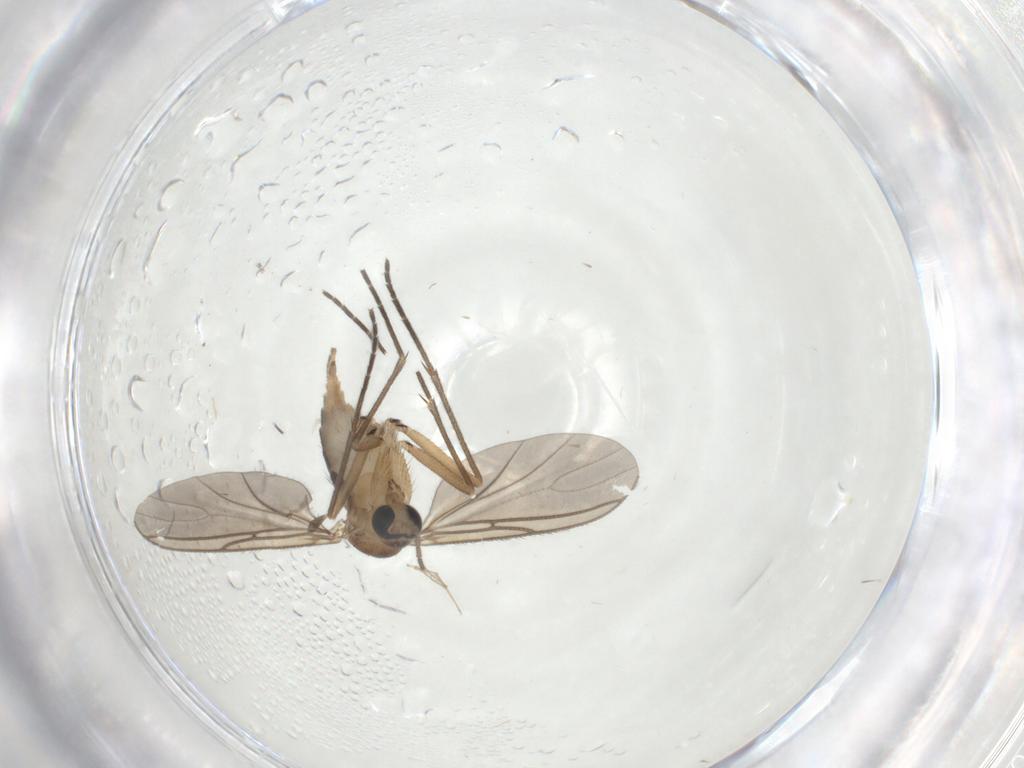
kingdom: Animalia
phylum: Arthropoda
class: Insecta
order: Diptera
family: Sciaridae
